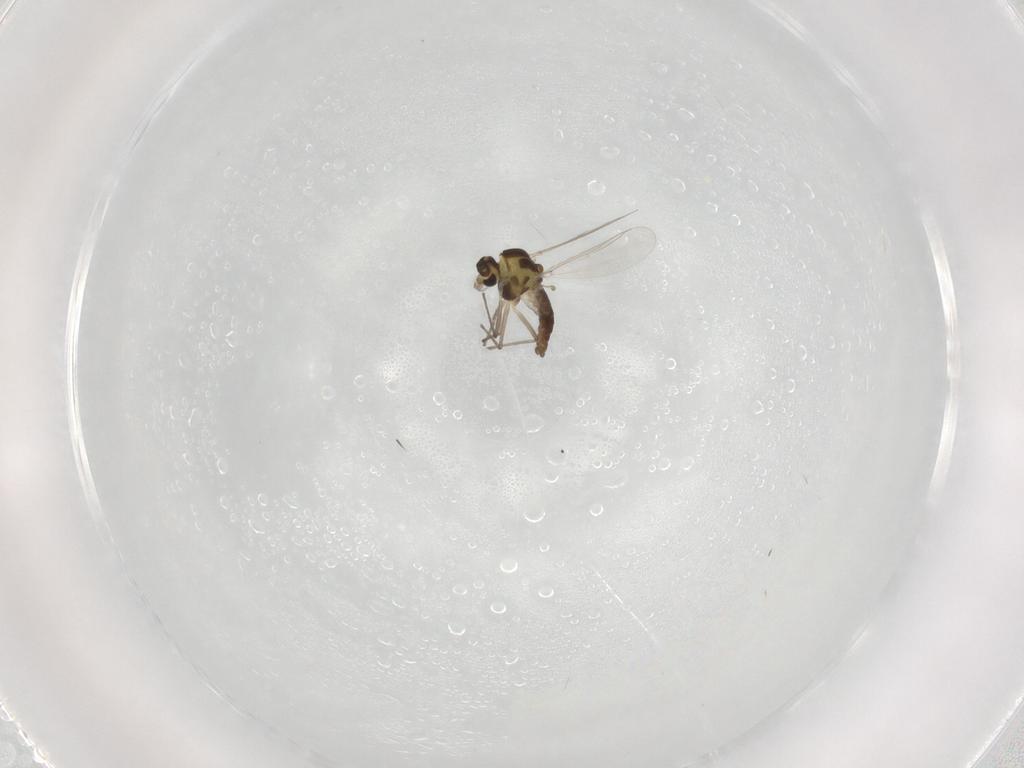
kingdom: Animalia
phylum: Arthropoda
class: Insecta
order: Diptera
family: Chironomidae
